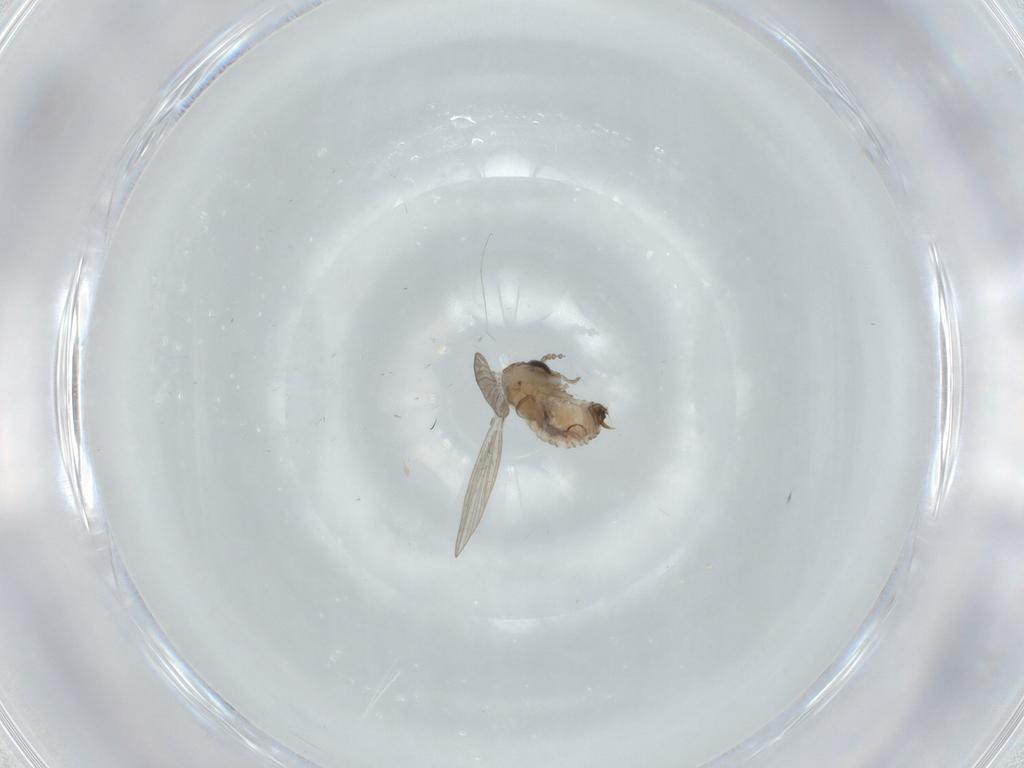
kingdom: Animalia
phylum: Arthropoda
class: Insecta
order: Diptera
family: Psychodidae
